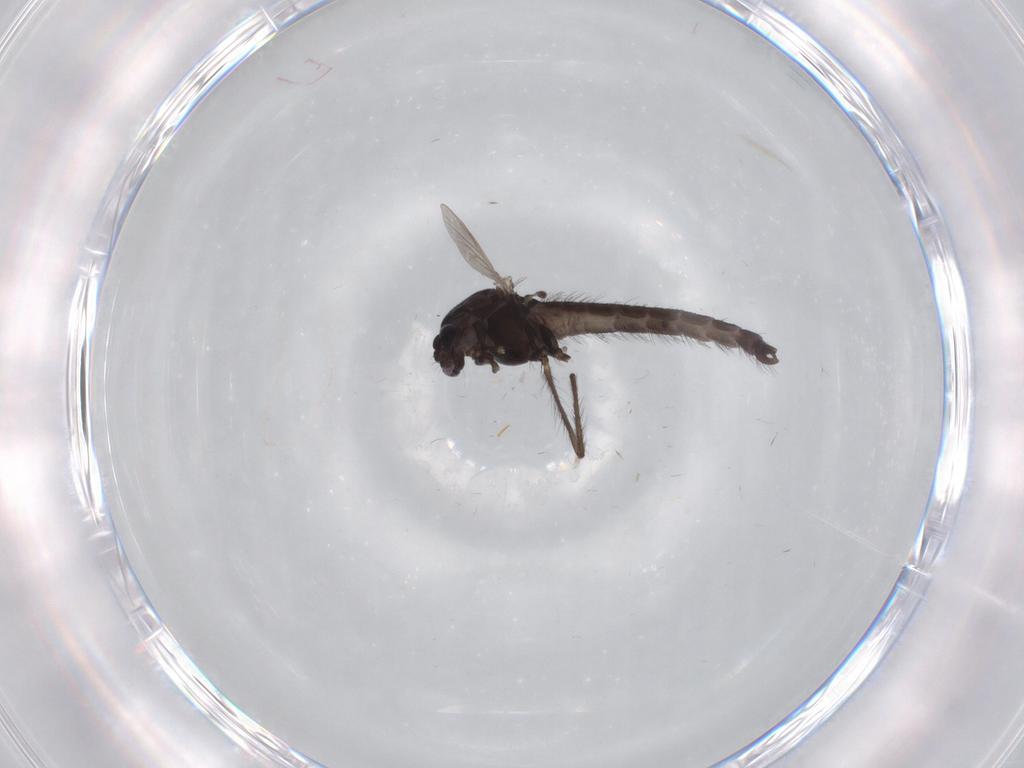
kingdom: Animalia
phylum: Arthropoda
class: Insecta
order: Diptera
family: Chironomidae
